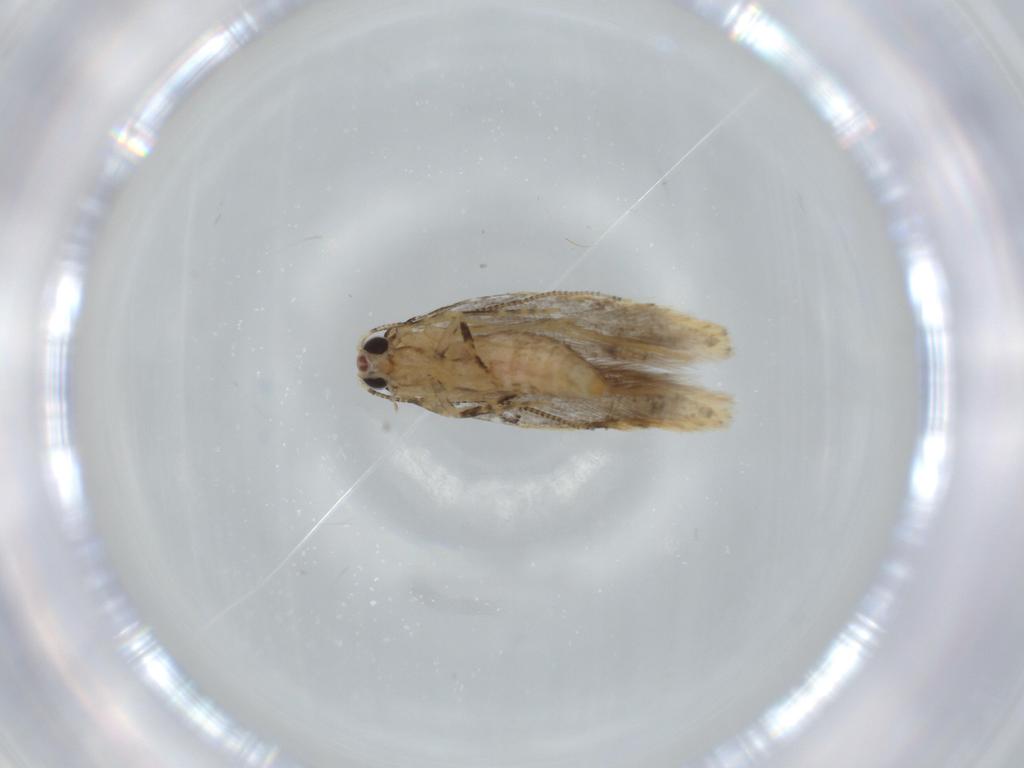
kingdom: Animalia
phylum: Arthropoda
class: Insecta
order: Lepidoptera
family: Tineidae
